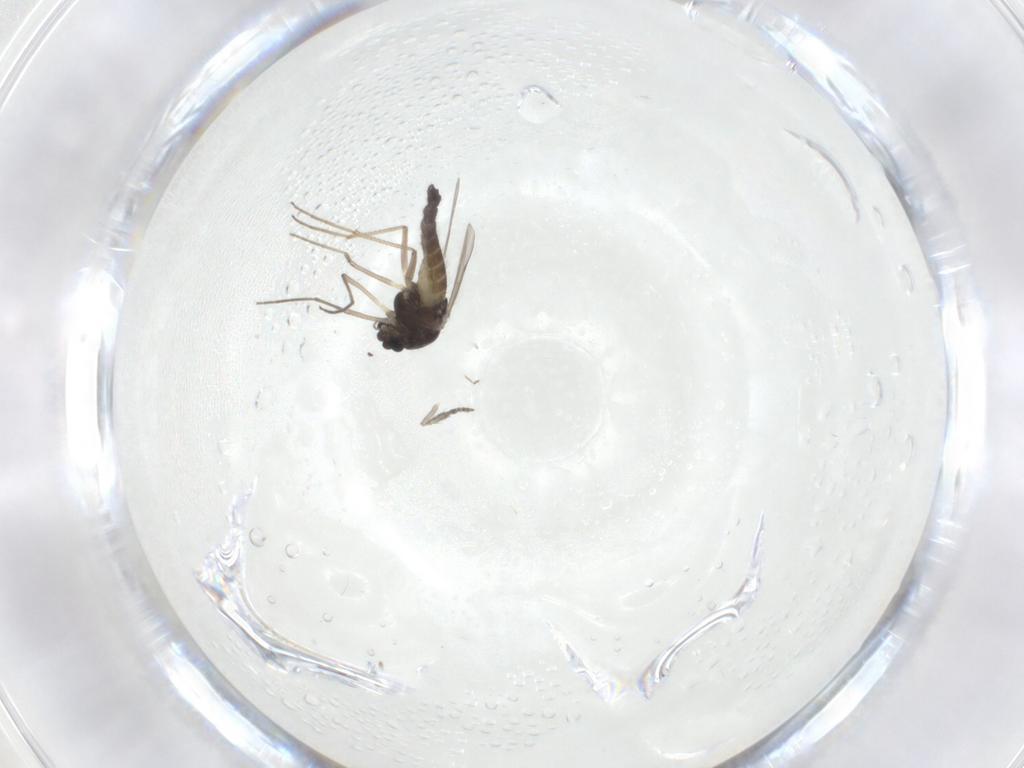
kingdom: Animalia
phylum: Arthropoda
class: Insecta
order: Diptera
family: Chironomidae
